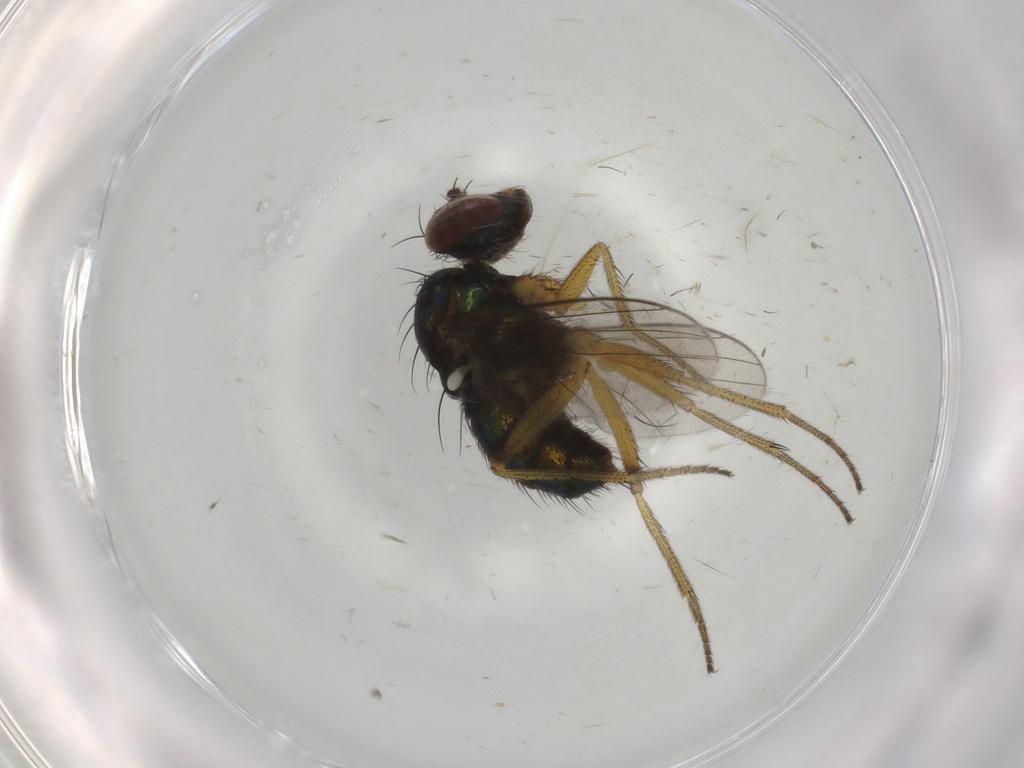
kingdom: Animalia
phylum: Arthropoda
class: Insecta
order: Diptera
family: Dolichopodidae
